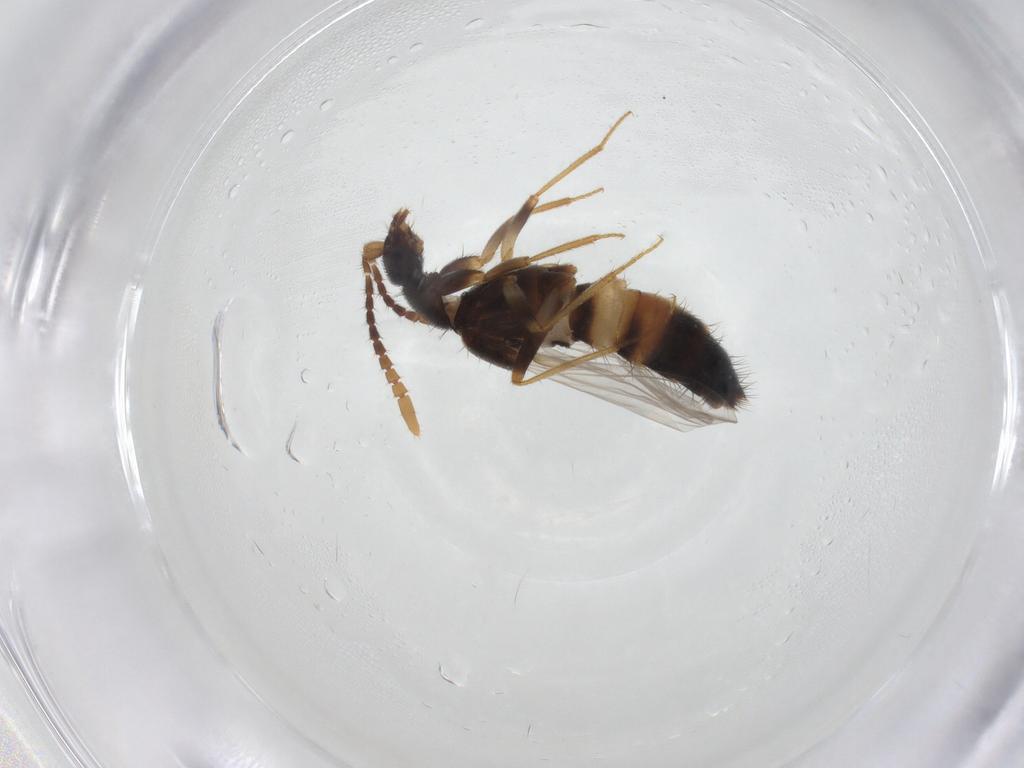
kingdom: Animalia
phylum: Arthropoda
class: Insecta
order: Coleoptera
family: Staphylinidae
